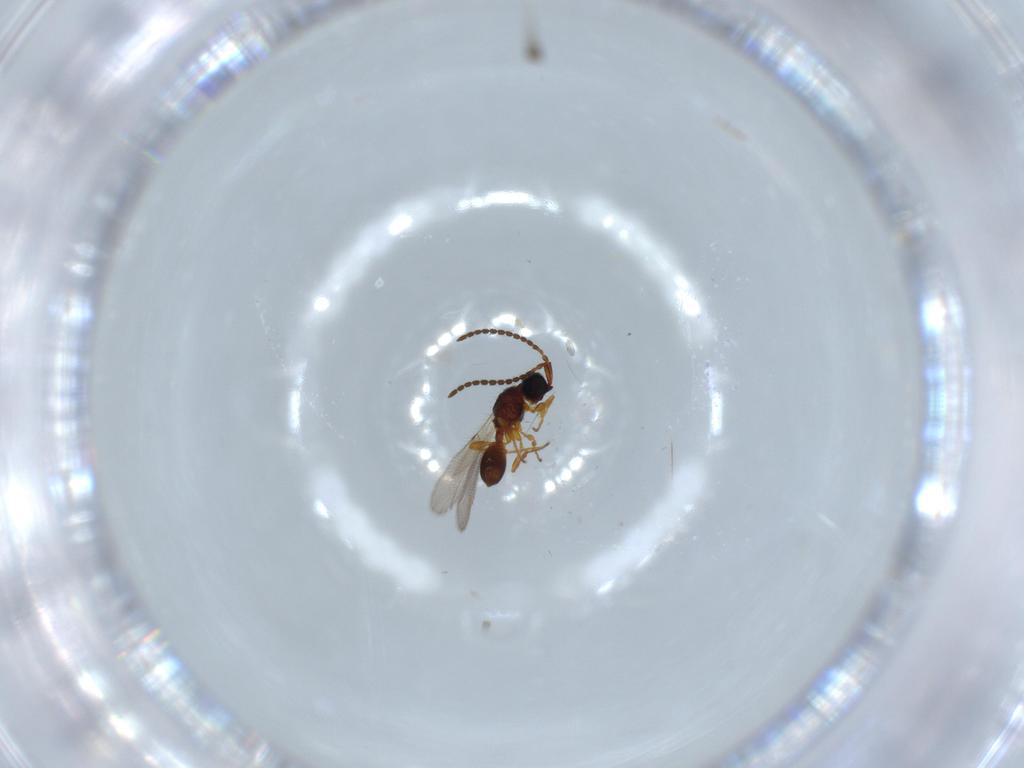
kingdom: Animalia
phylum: Arthropoda
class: Insecta
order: Hymenoptera
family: Diapriidae
